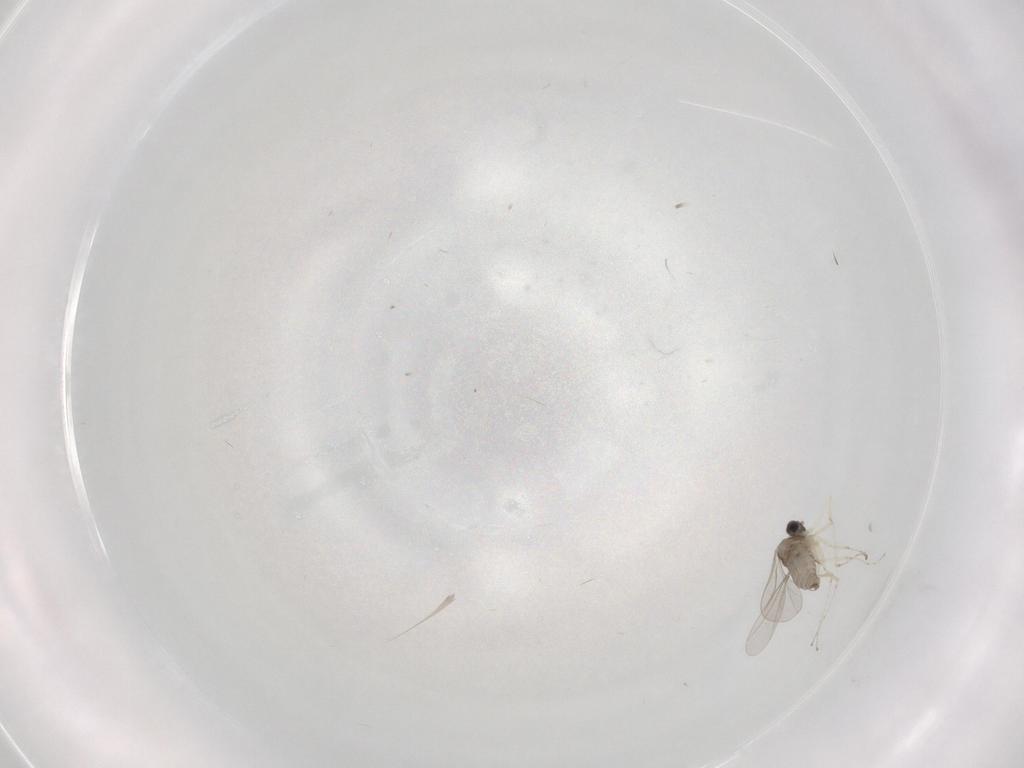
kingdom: Animalia
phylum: Arthropoda
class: Insecta
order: Diptera
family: Cecidomyiidae
